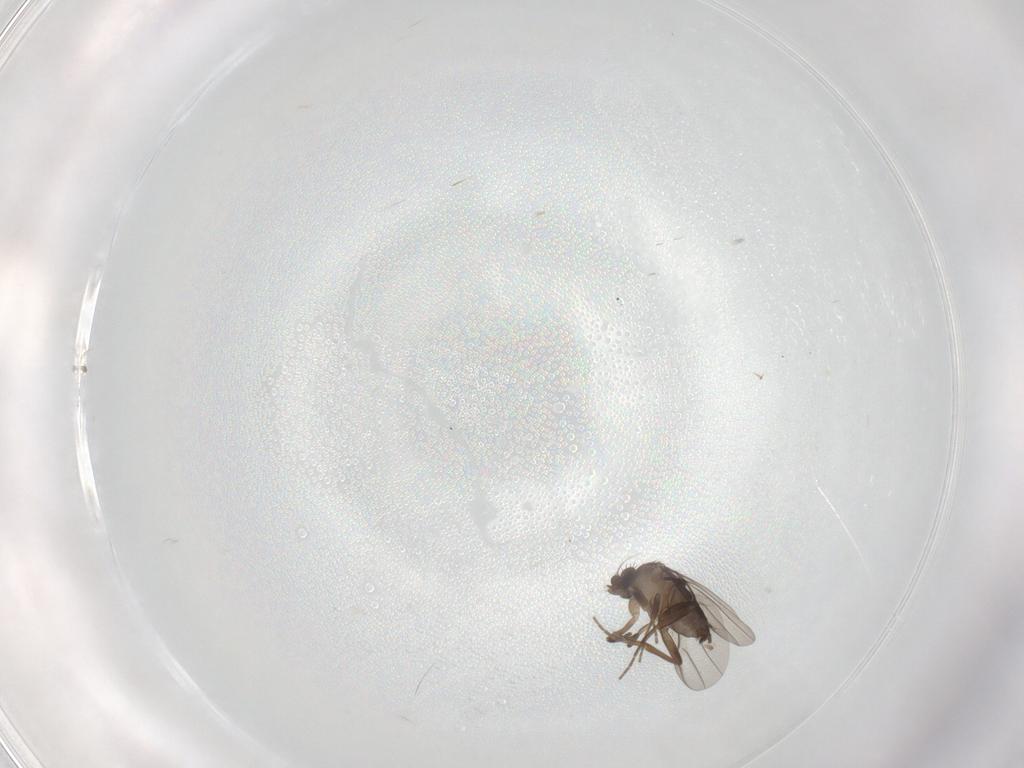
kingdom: Animalia
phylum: Arthropoda
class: Insecta
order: Diptera
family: Phoridae
